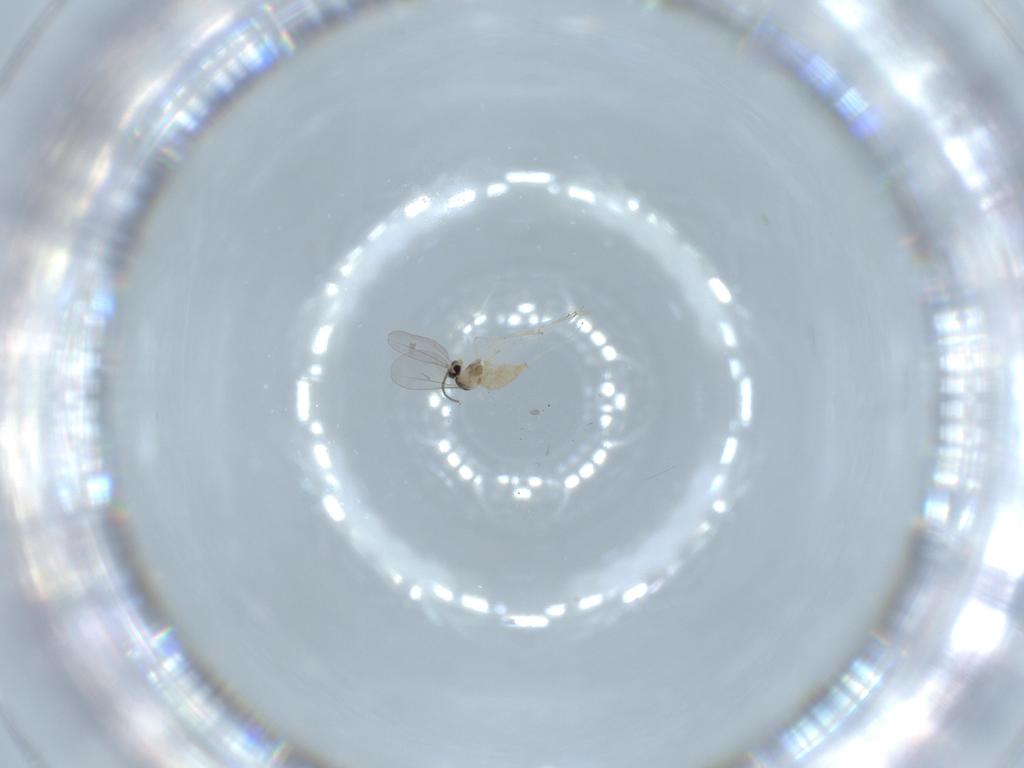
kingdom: Animalia
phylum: Arthropoda
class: Insecta
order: Diptera
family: Cecidomyiidae
